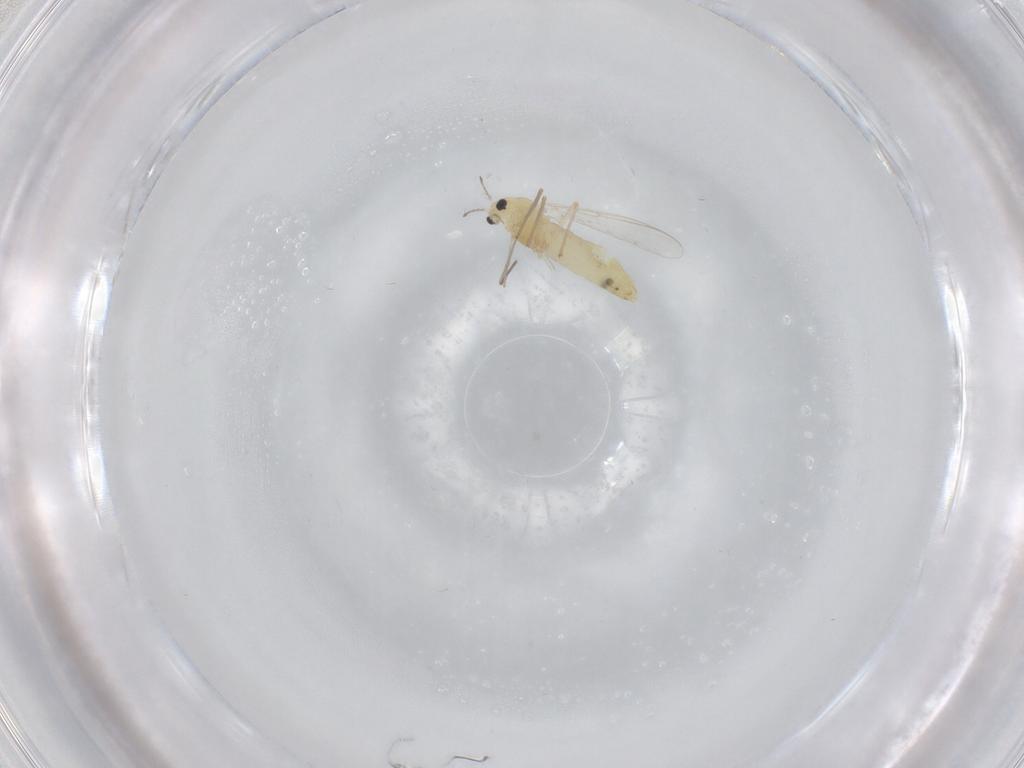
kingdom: Animalia
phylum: Arthropoda
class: Insecta
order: Diptera
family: Chironomidae
